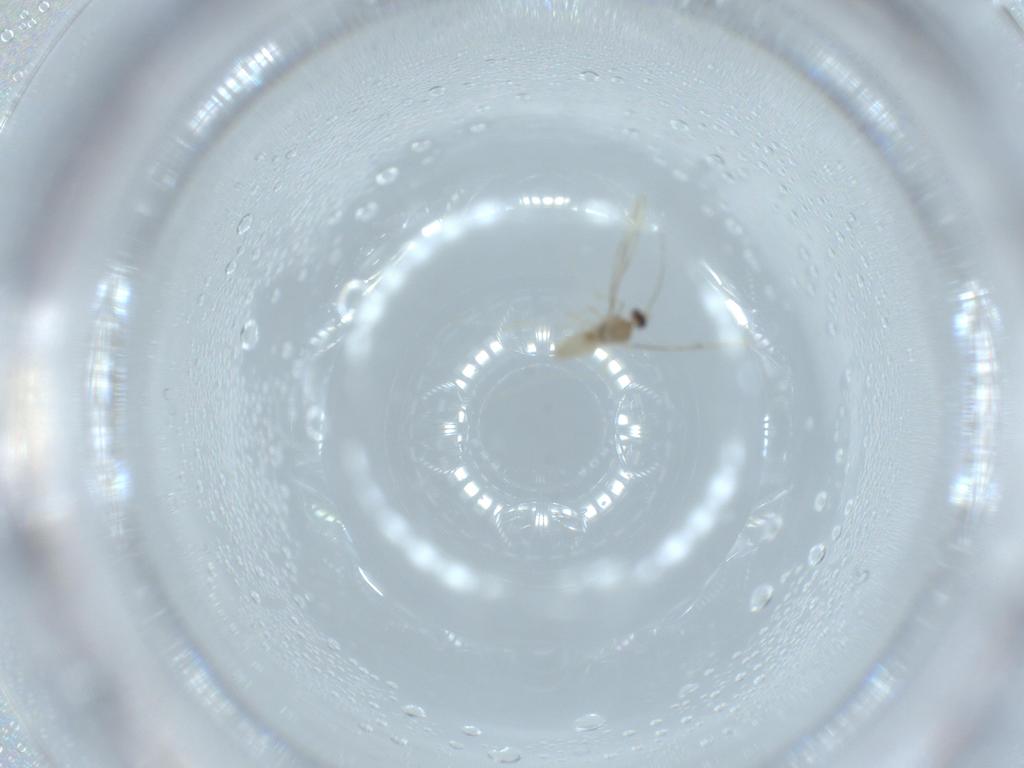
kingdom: Animalia
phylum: Arthropoda
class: Insecta
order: Diptera
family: Cecidomyiidae
